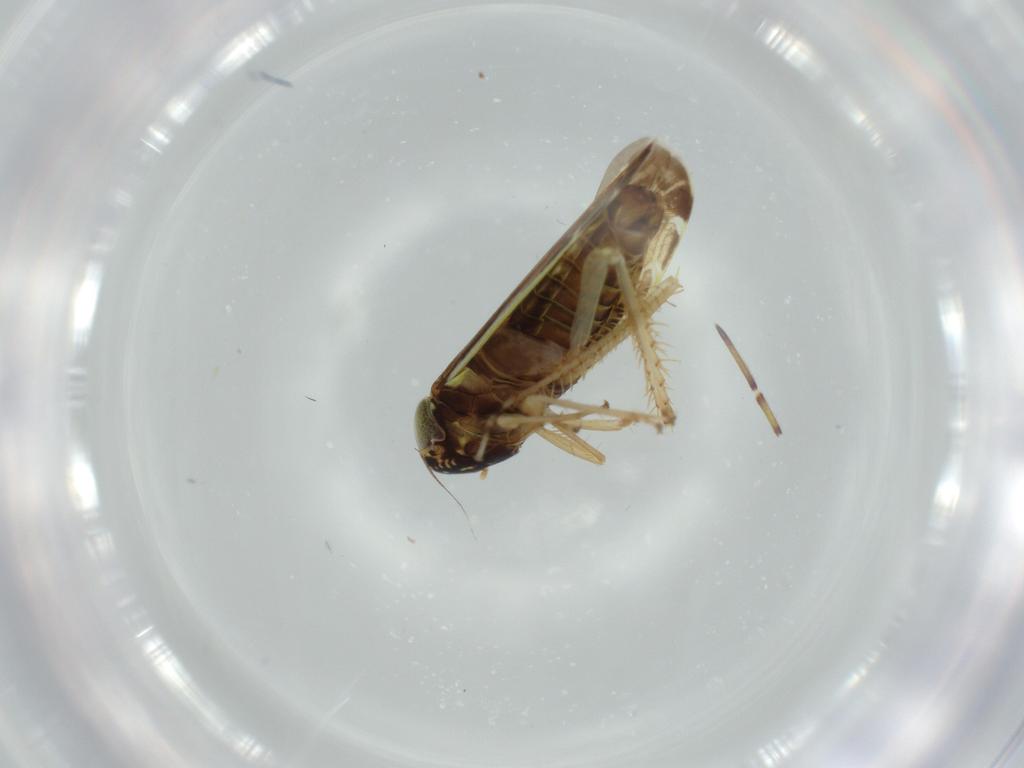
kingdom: Animalia
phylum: Arthropoda
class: Insecta
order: Hemiptera
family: Cicadellidae
